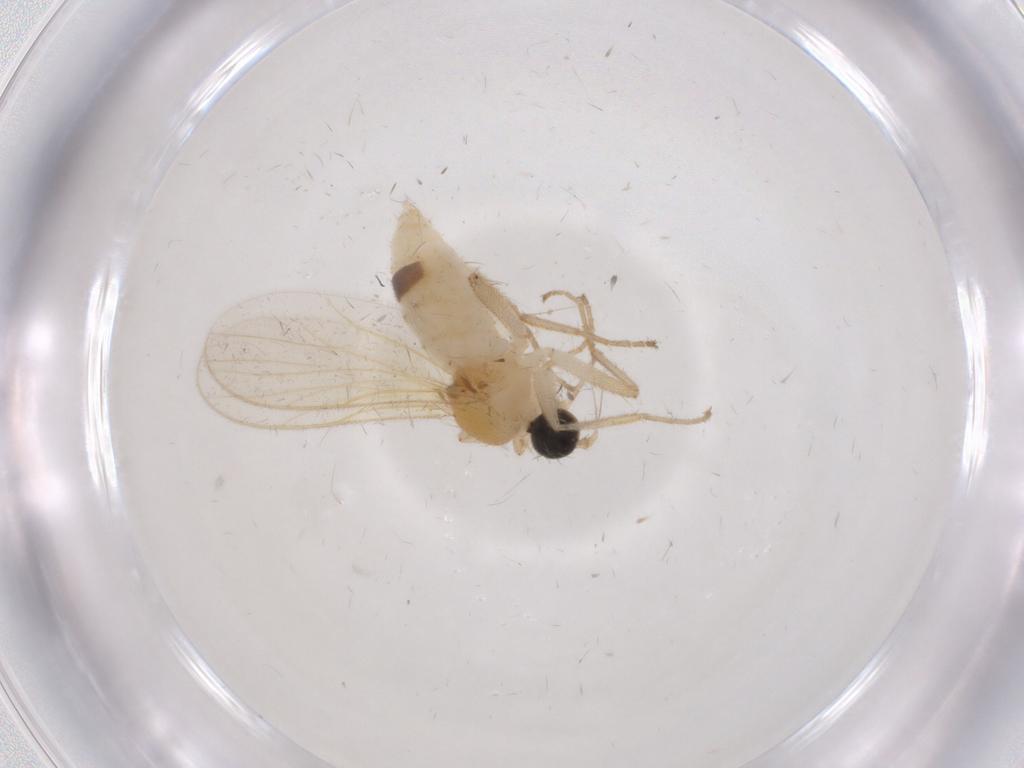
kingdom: Animalia
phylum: Arthropoda
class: Insecta
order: Diptera
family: Hybotidae
